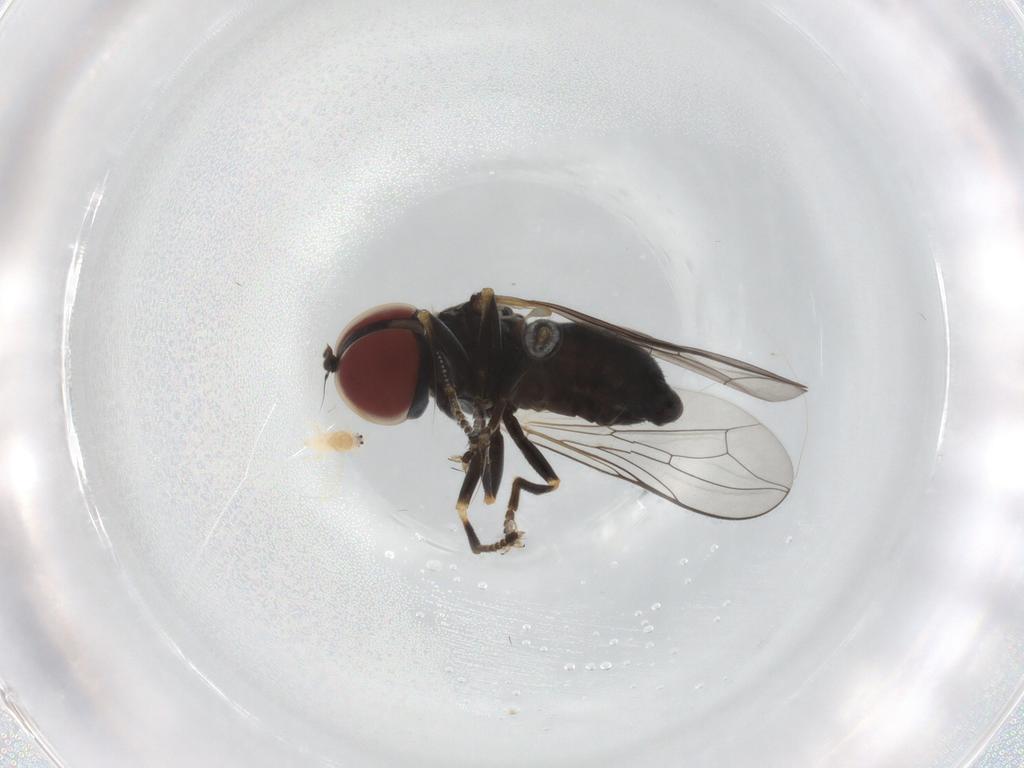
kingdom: Animalia
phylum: Arthropoda
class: Insecta
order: Diptera
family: Pipunculidae
